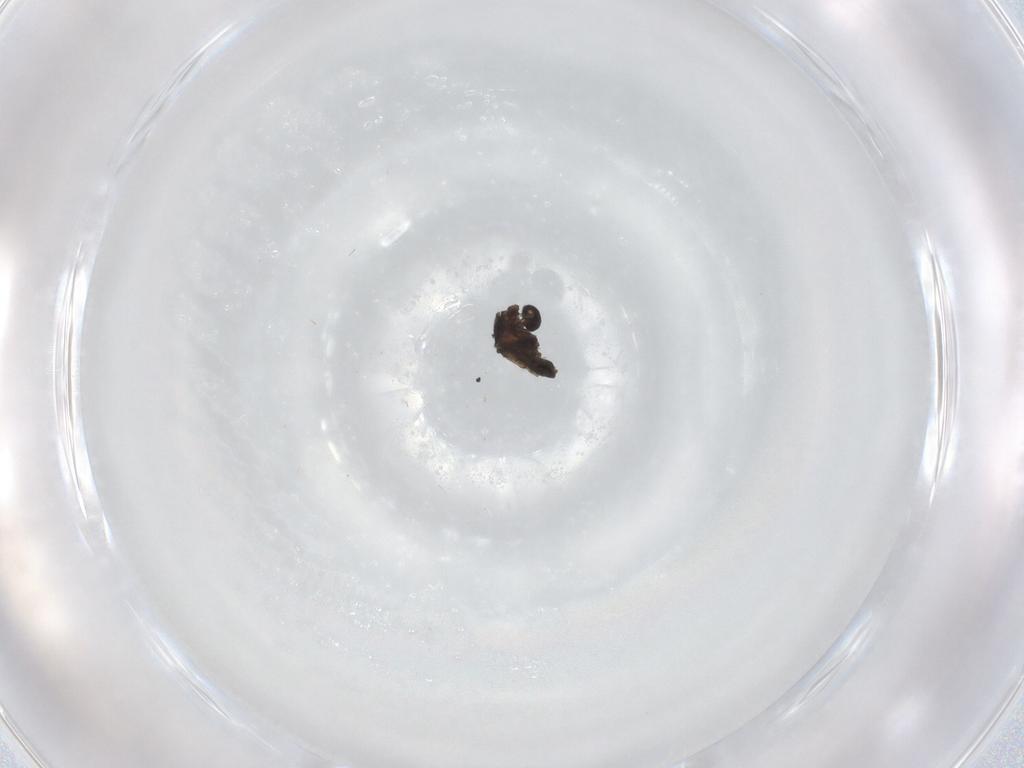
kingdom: Animalia
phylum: Arthropoda
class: Insecta
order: Diptera
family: Ceratopogonidae
